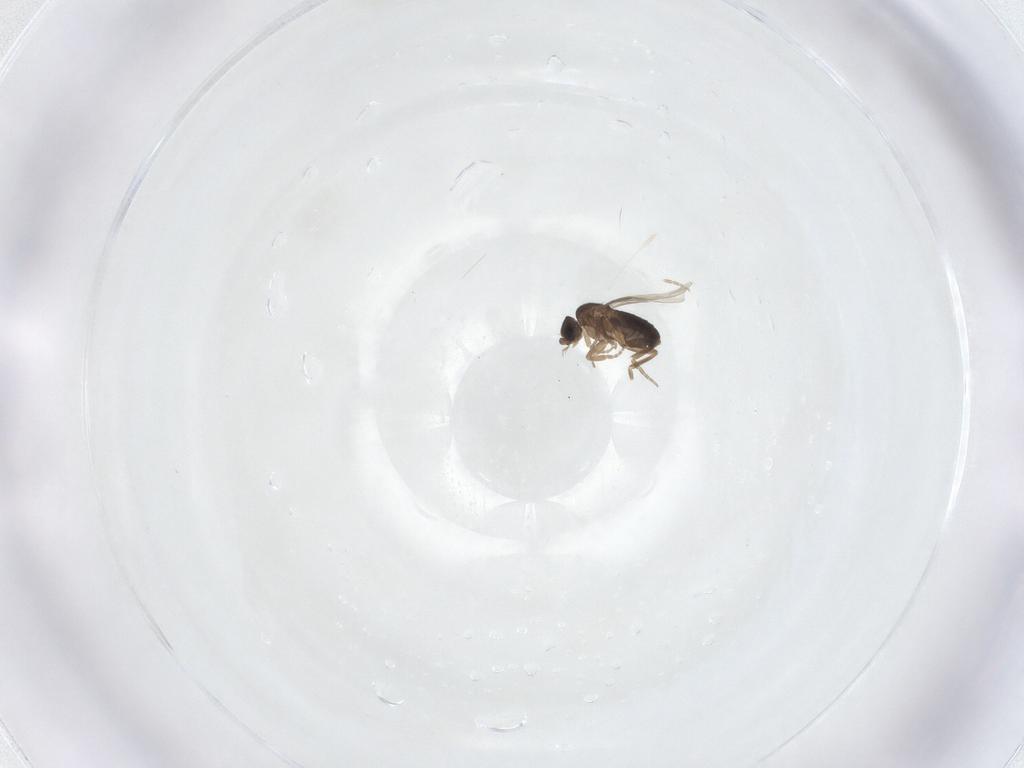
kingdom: Animalia
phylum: Arthropoda
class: Insecta
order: Diptera
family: Phoridae
